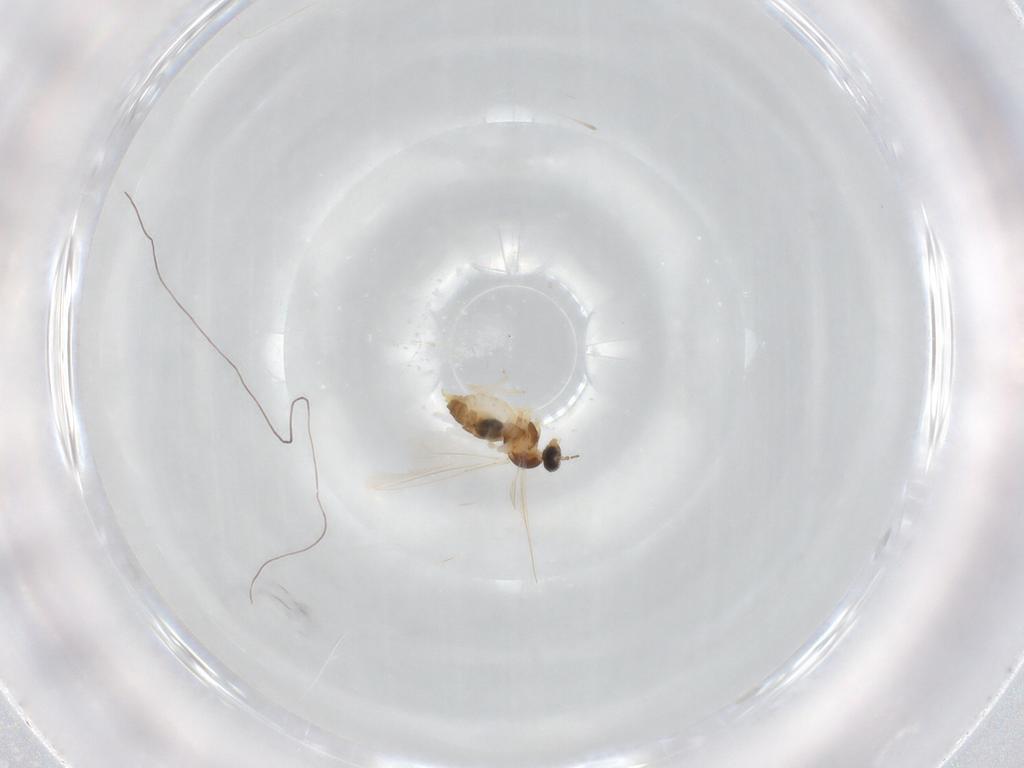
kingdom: Animalia
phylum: Arthropoda
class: Insecta
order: Diptera
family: Cecidomyiidae
